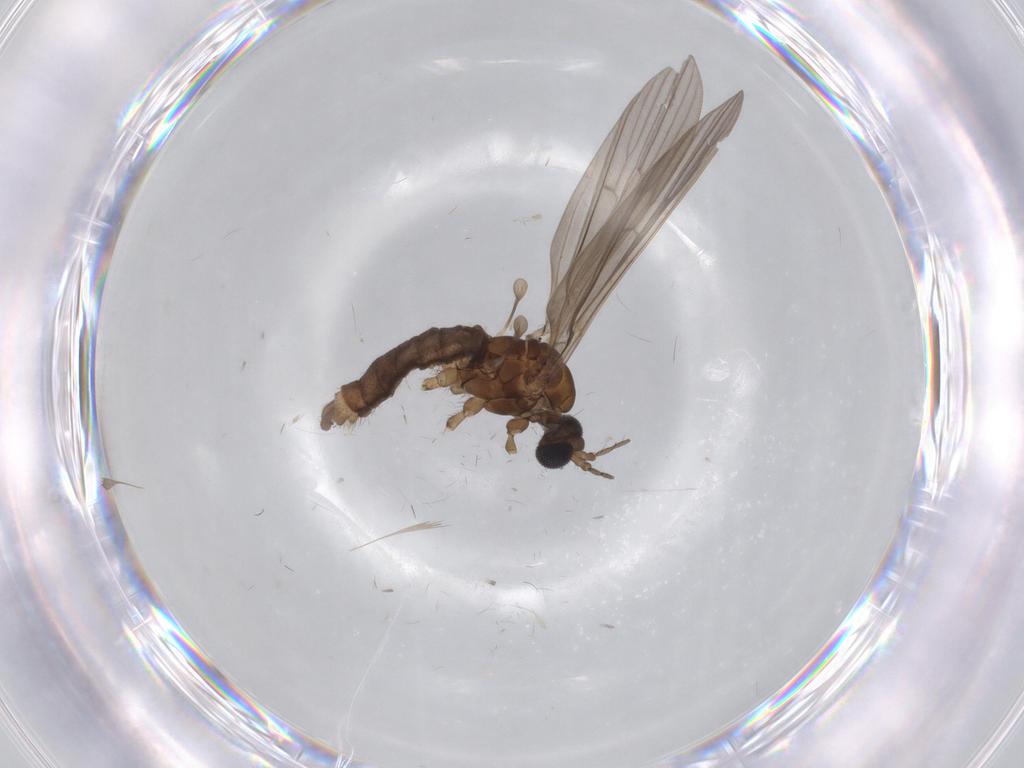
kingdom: Animalia
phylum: Arthropoda
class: Insecta
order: Diptera
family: Limoniidae
